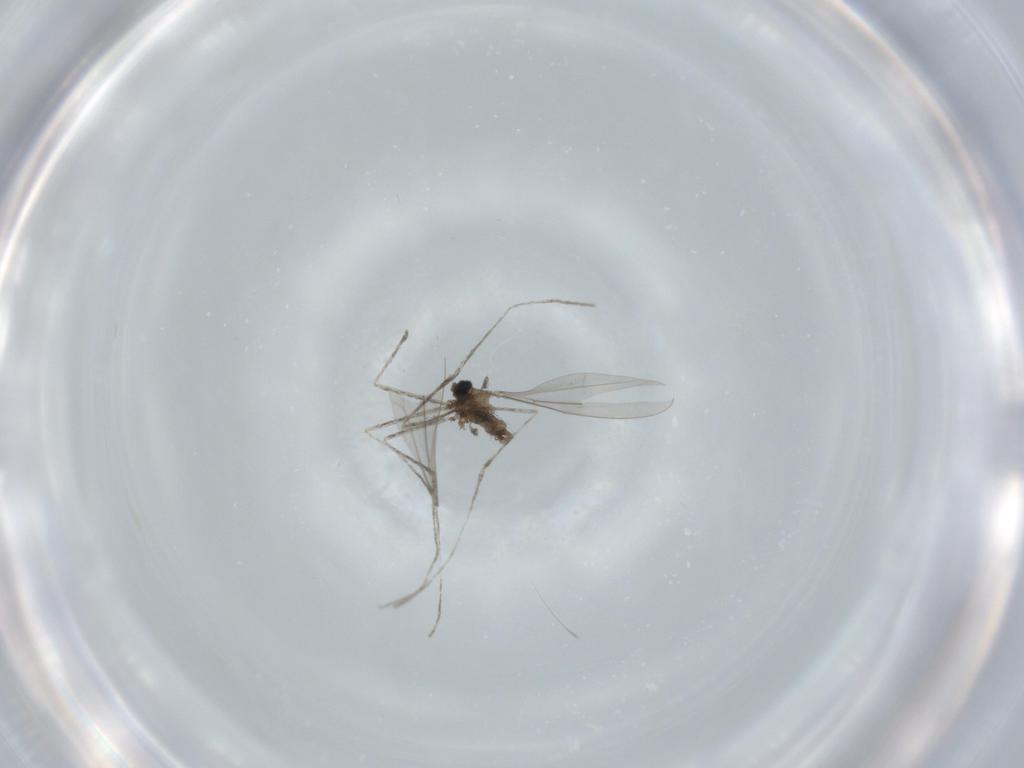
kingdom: Animalia
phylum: Arthropoda
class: Insecta
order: Diptera
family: Cecidomyiidae
